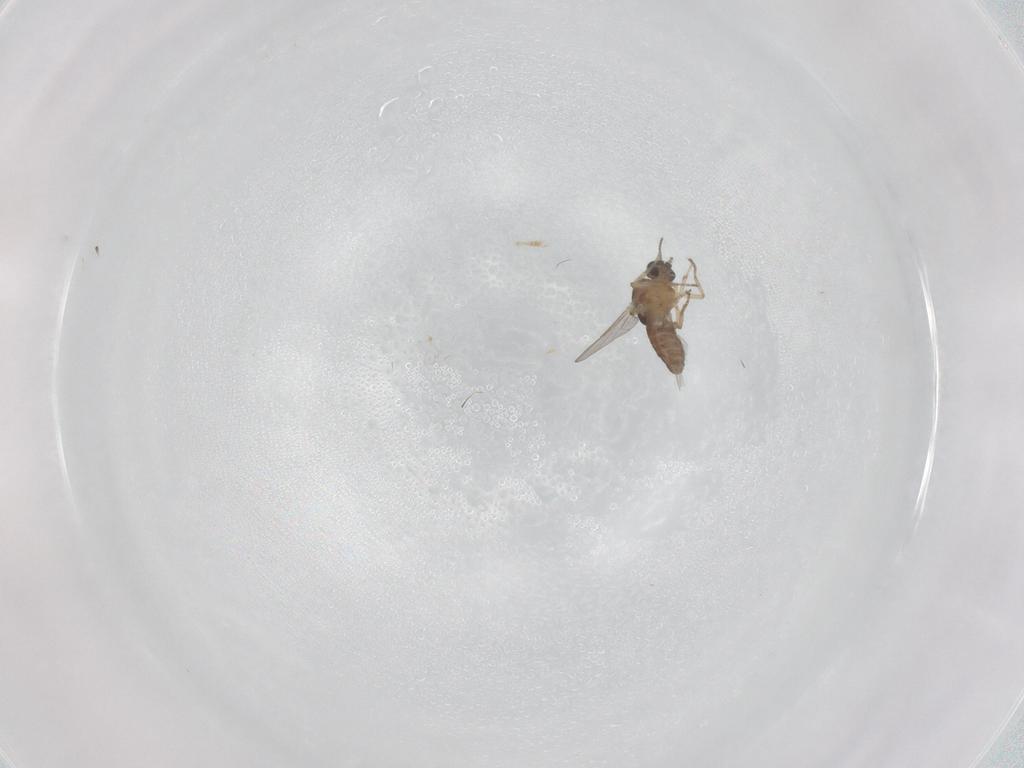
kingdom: Animalia
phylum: Arthropoda
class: Insecta
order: Diptera
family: Ceratopogonidae
